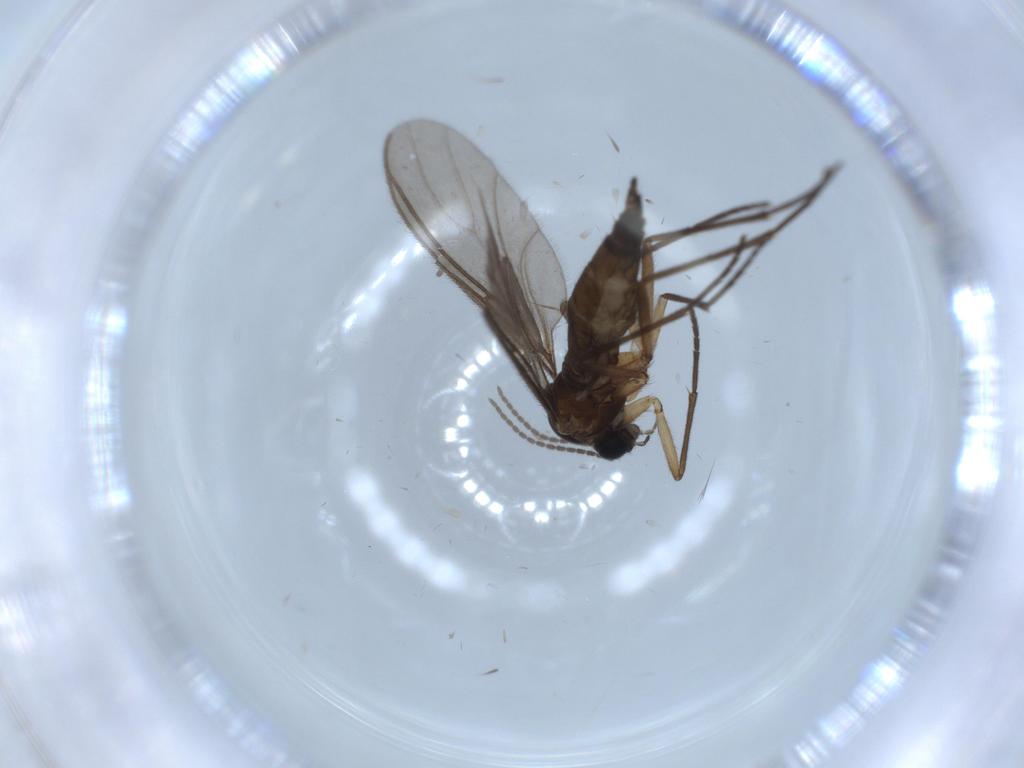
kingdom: Animalia
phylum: Arthropoda
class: Insecta
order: Diptera
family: Sciaridae
